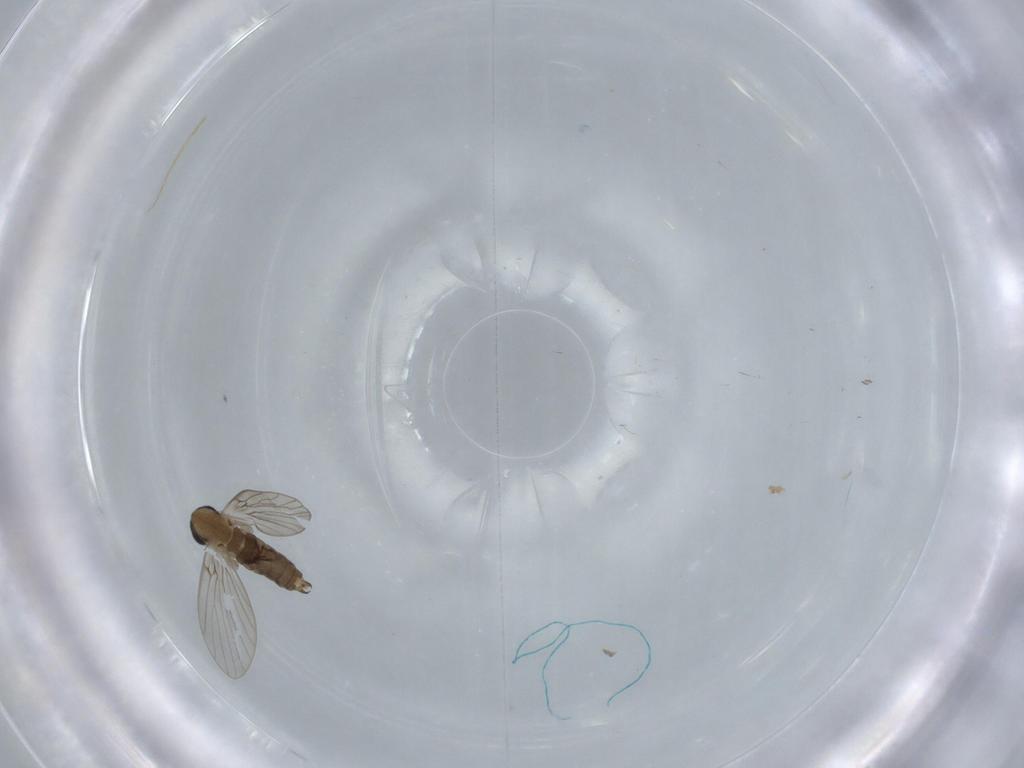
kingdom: Animalia
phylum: Arthropoda
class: Insecta
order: Diptera
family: Psychodidae
